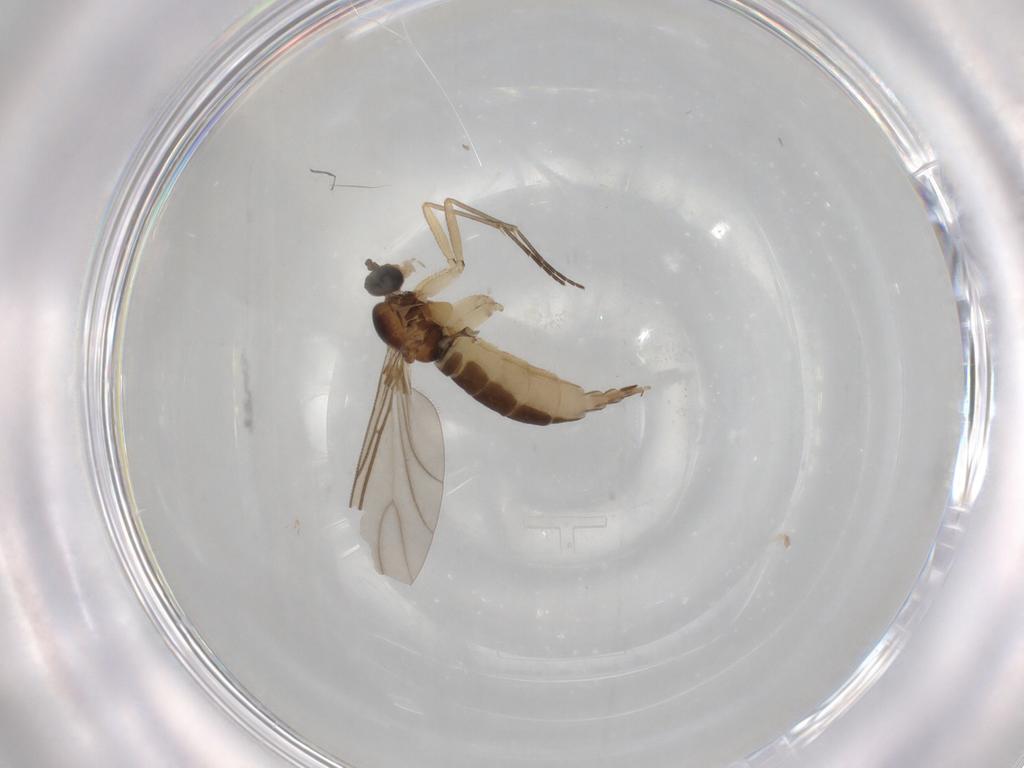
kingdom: Animalia
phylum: Arthropoda
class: Insecta
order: Diptera
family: Sciaridae
